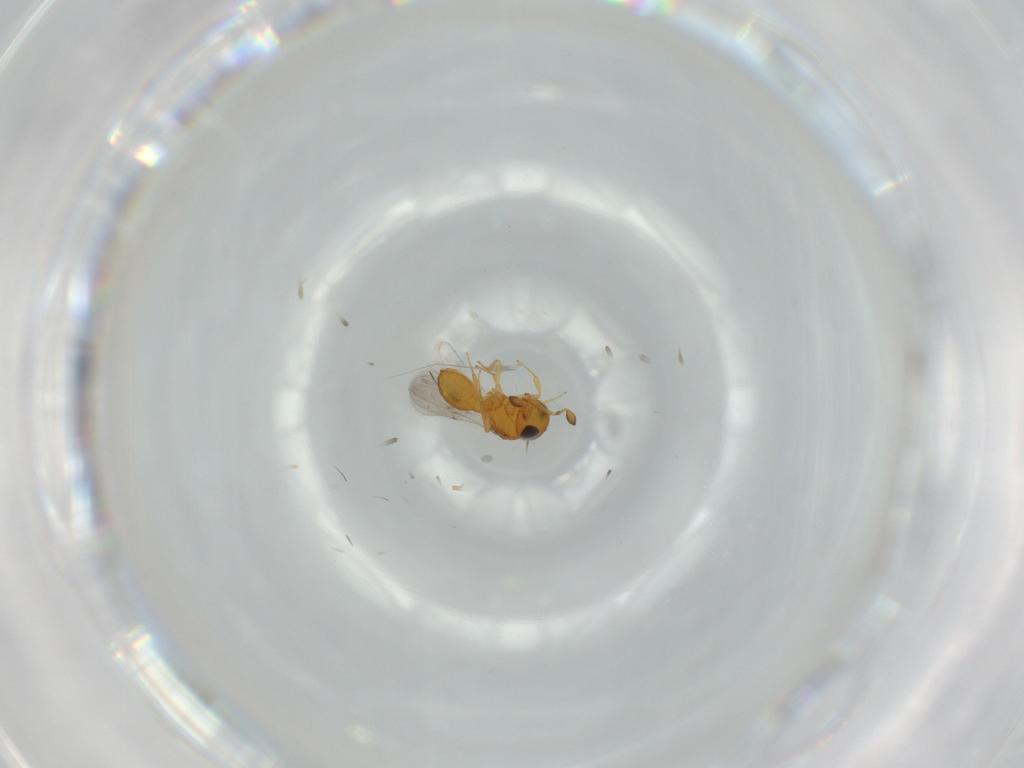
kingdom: Animalia
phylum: Arthropoda
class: Insecta
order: Hymenoptera
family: Scelionidae
